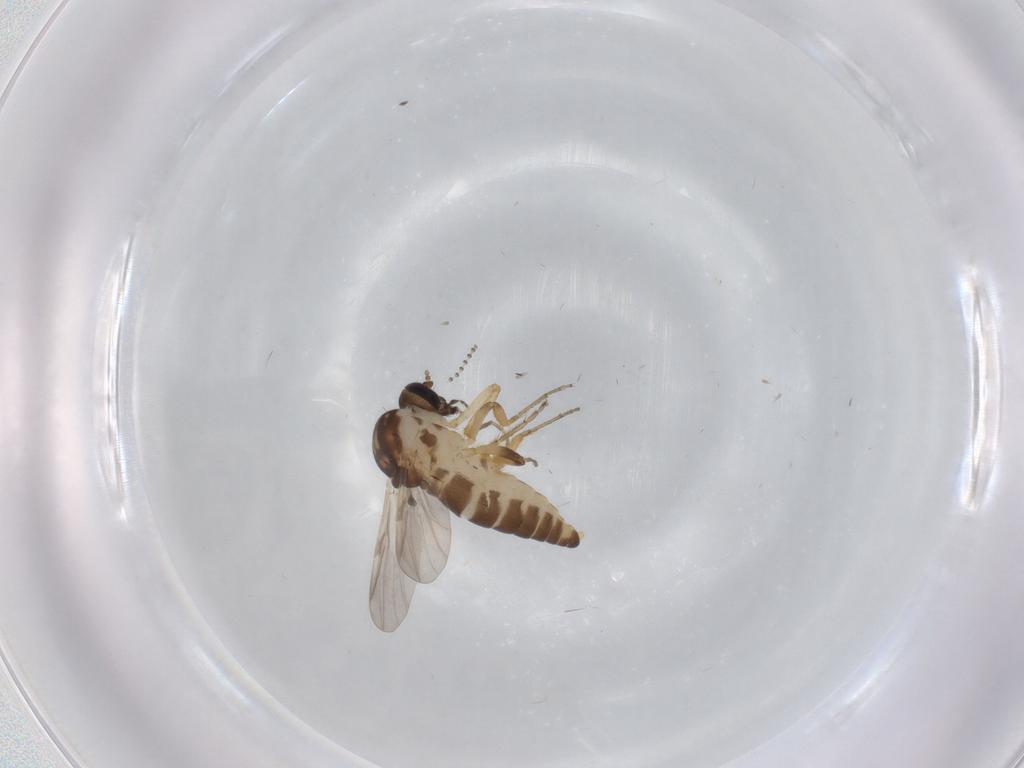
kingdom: Animalia
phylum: Arthropoda
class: Insecta
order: Diptera
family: Ceratopogonidae
